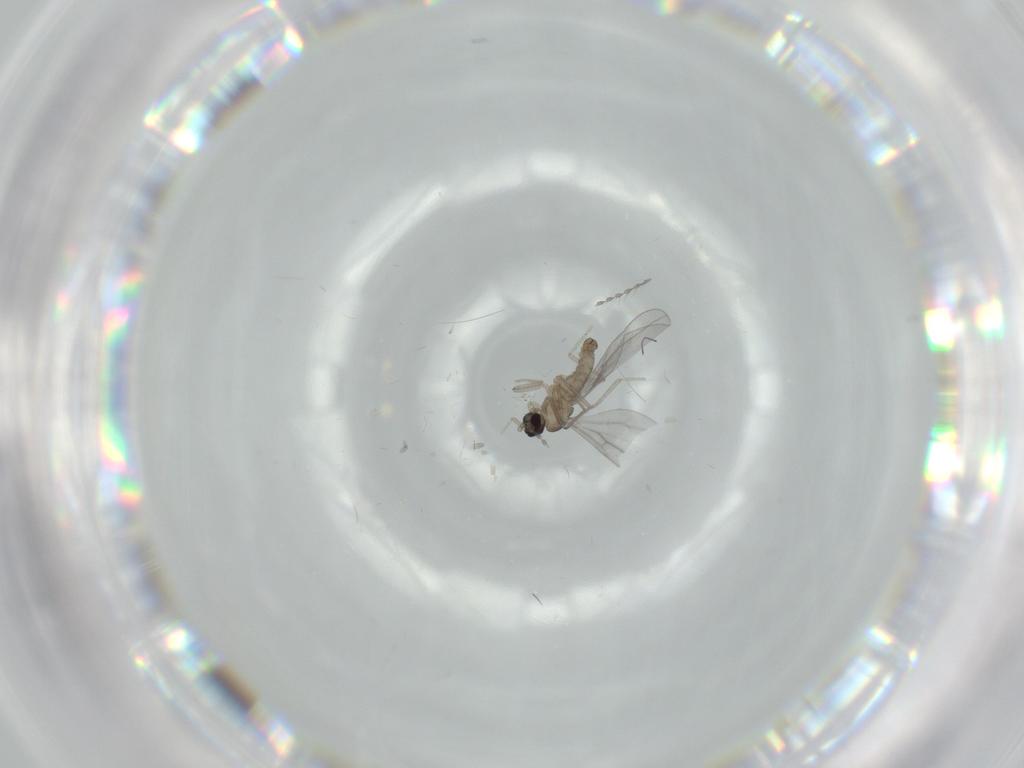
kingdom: Animalia
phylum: Arthropoda
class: Insecta
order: Diptera
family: Cecidomyiidae
